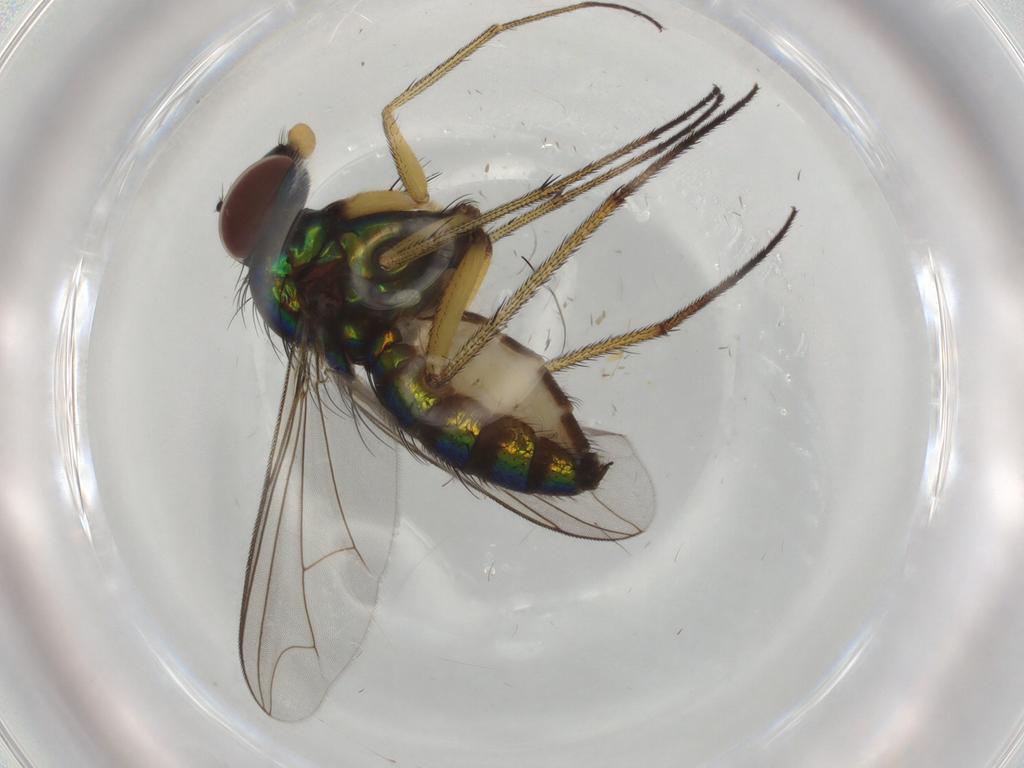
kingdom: Animalia
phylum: Arthropoda
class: Insecta
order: Diptera
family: Dolichopodidae
